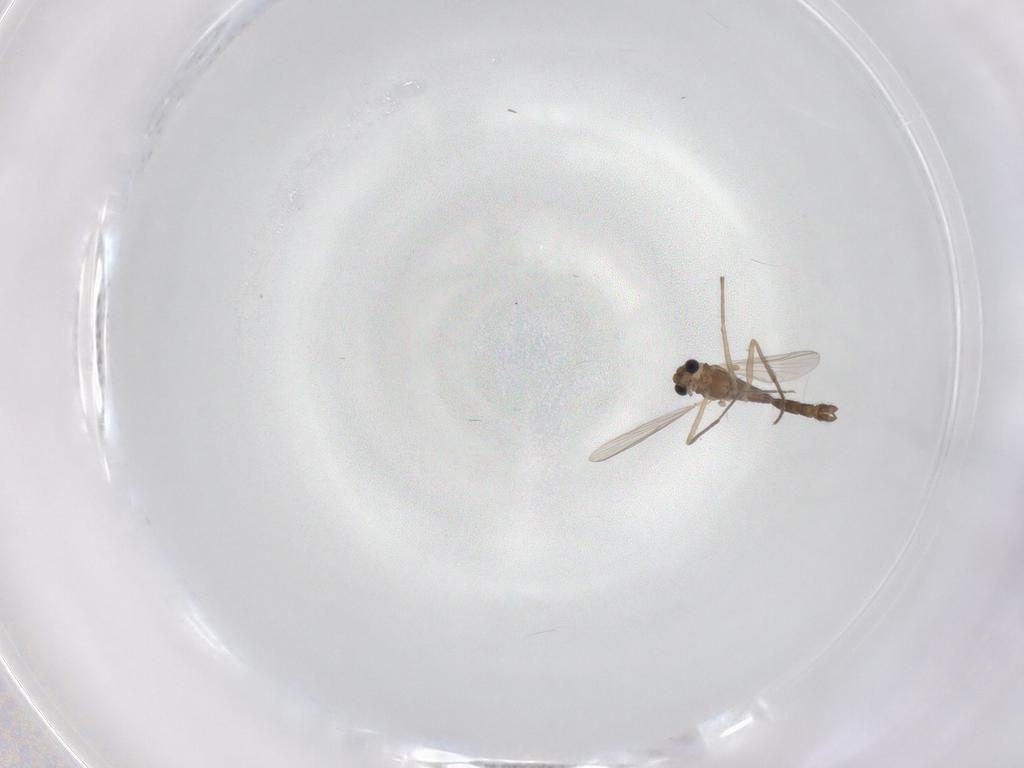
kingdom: Animalia
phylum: Arthropoda
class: Insecta
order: Diptera
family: Chironomidae
